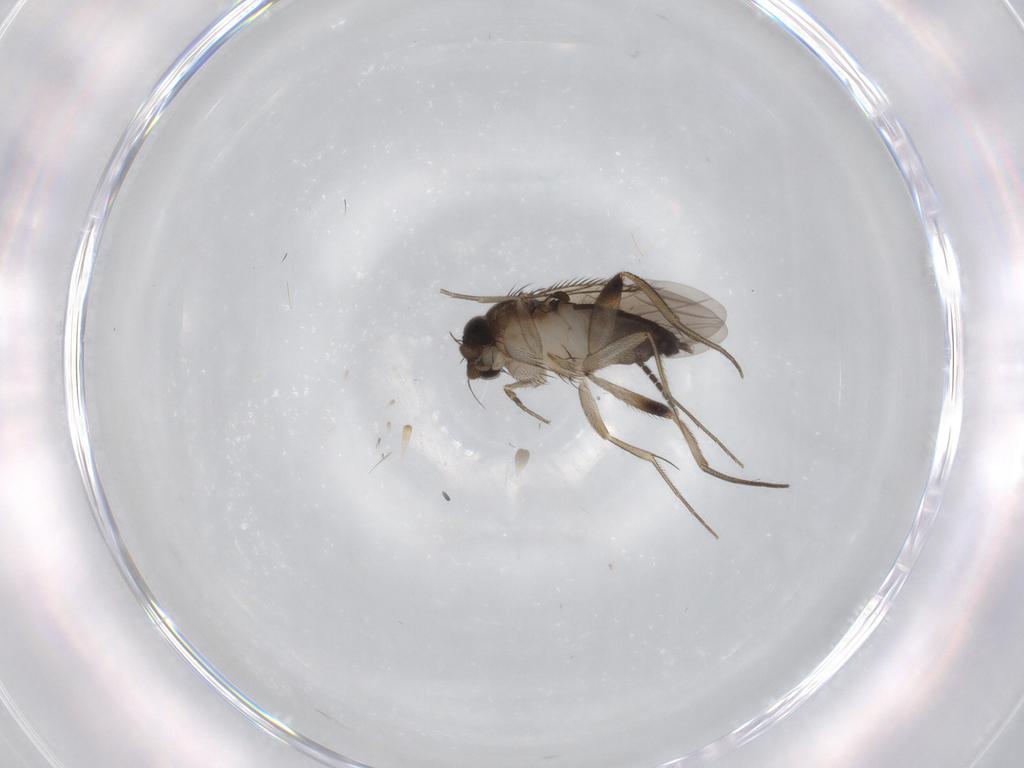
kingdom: Animalia
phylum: Arthropoda
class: Insecta
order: Diptera
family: Phoridae
